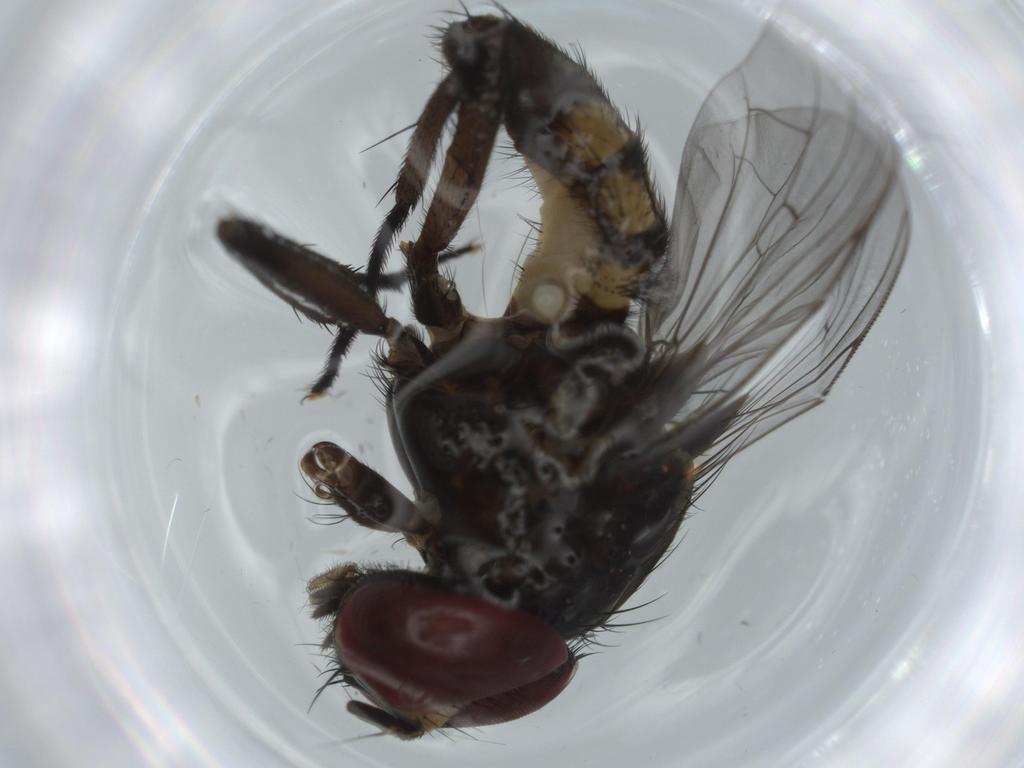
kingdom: Animalia
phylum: Arthropoda
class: Insecta
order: Diptera
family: Psychodidae
